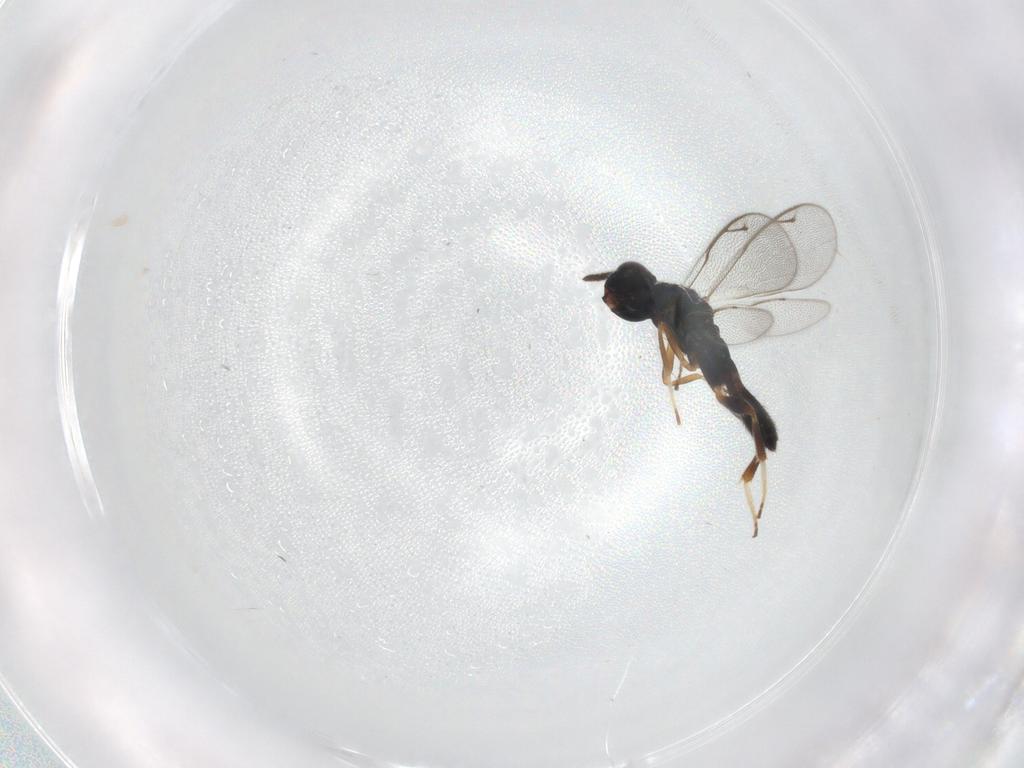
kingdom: Animalia
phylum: Arthropoda
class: Insecta
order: Hymenoptera
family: Cleonyminae
